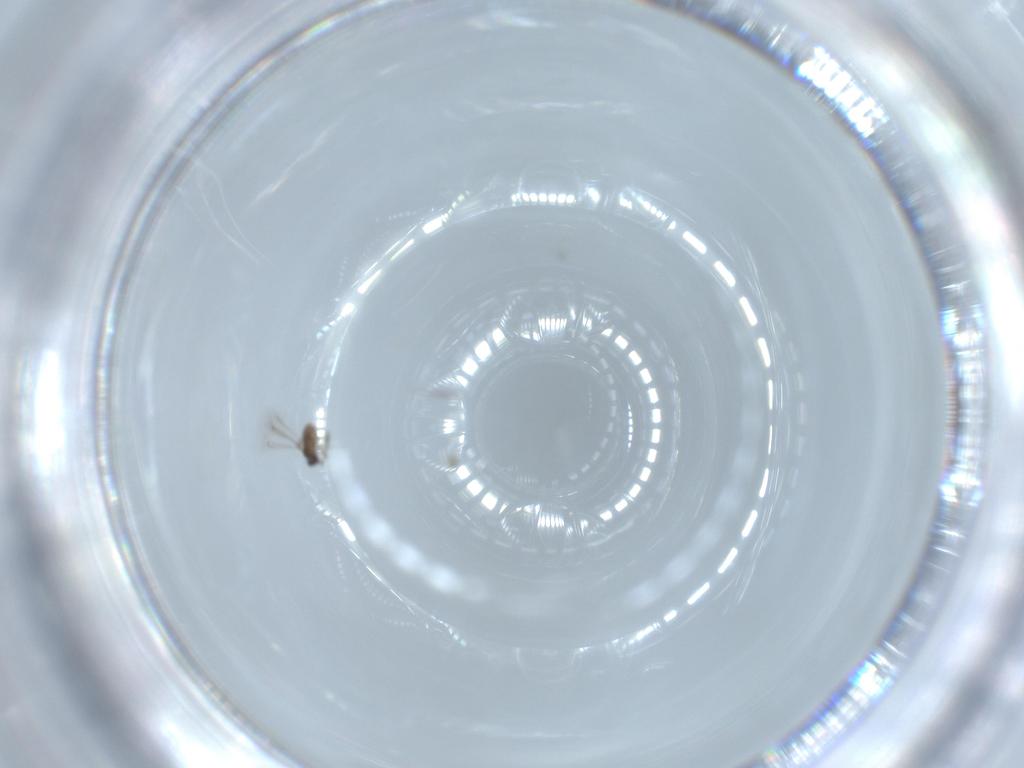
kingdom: Animalia
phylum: Arthropoda
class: Insecta
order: Hymenoptera
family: Mymaridae
